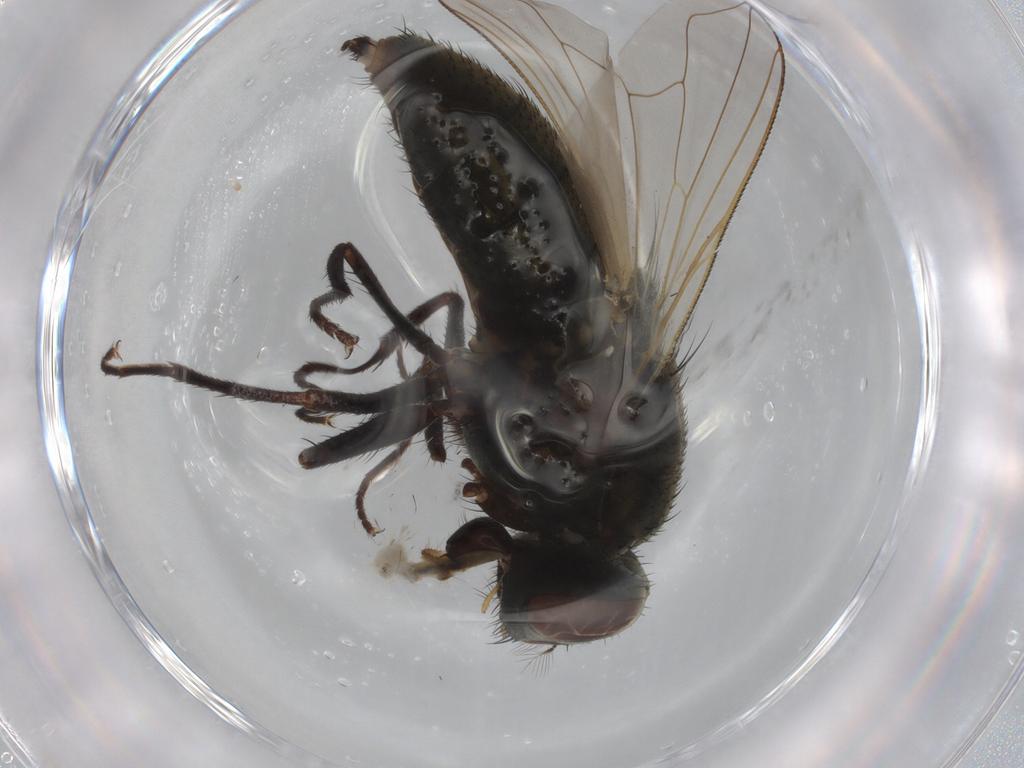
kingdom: Animalia
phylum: Arthropoda
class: Insecta
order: Diptera
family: Muscidae
